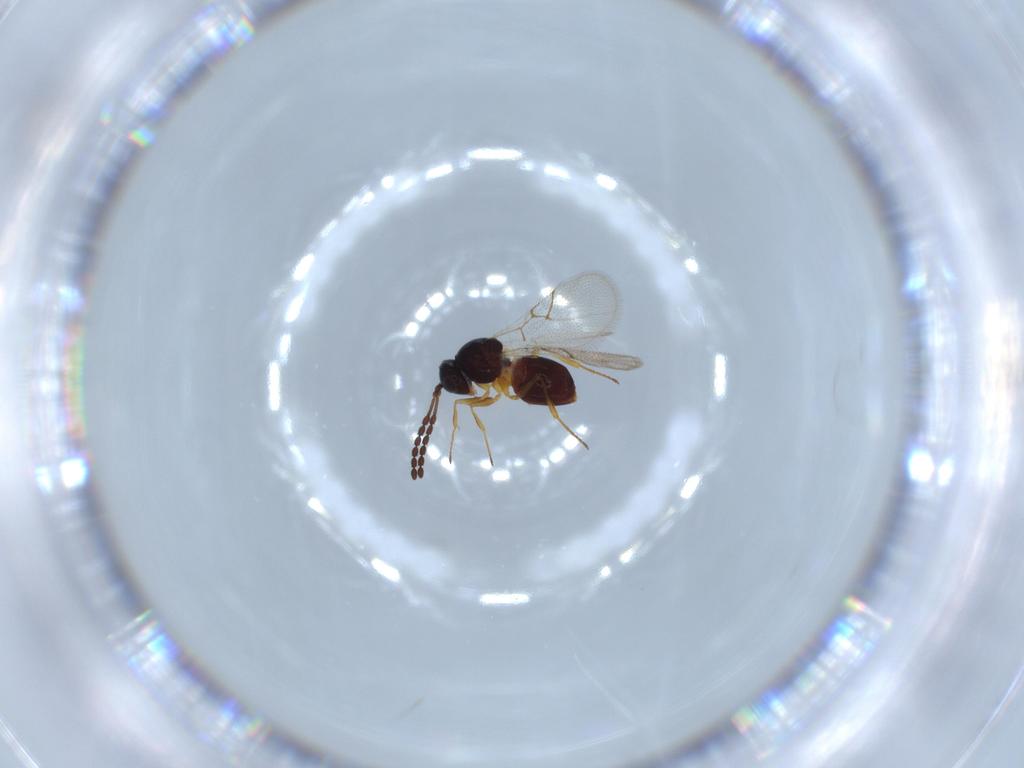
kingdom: Animalia
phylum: Arthropoda
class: Insecta
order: Hymenoptera
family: Figitidae
